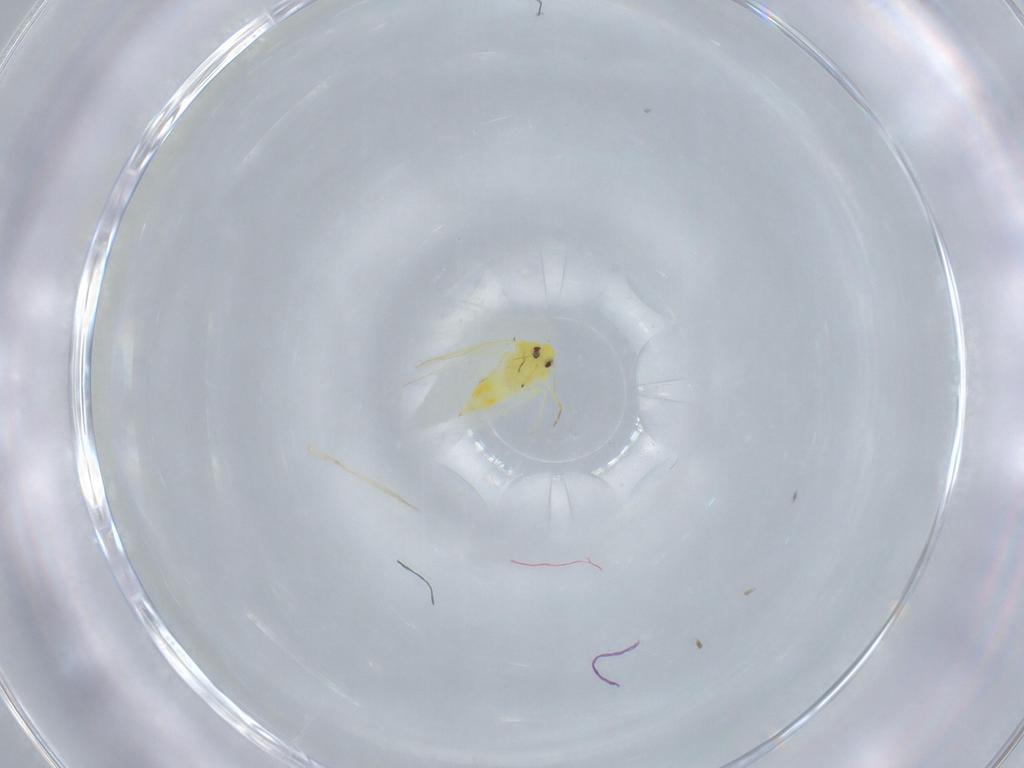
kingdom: Animalia
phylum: Arthropoda
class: Insecta
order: Hemiptera
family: Aleyrodidae
